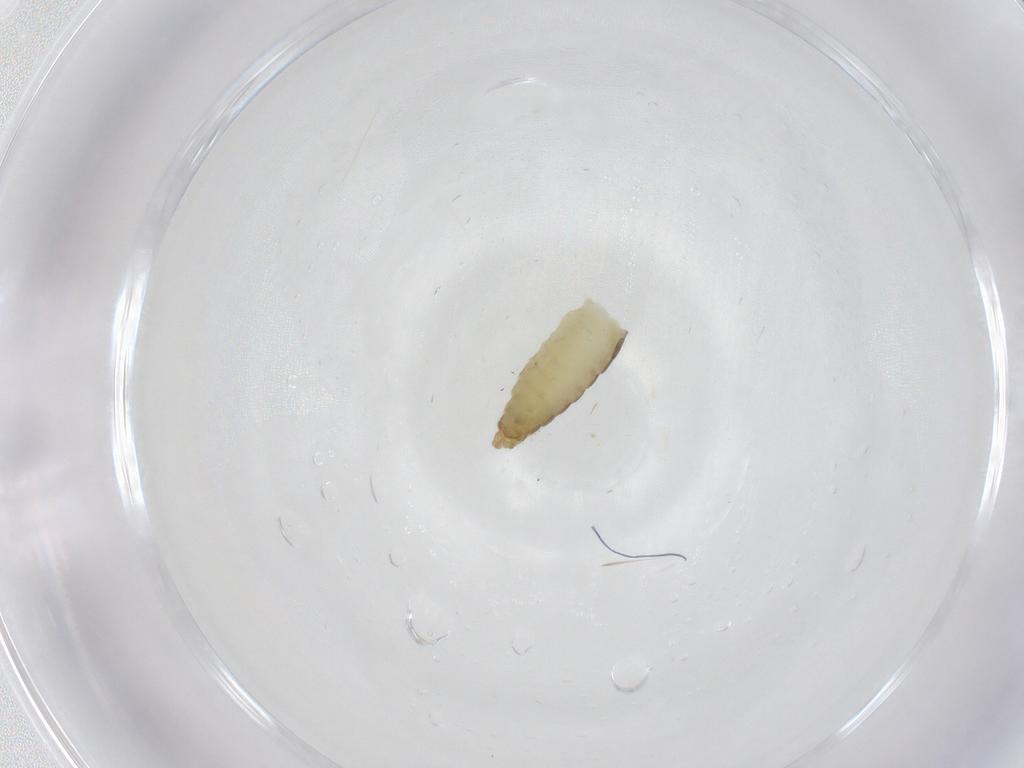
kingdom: Animalia
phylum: Arthropoda
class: Insecta
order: Diptera
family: Chironomidae
